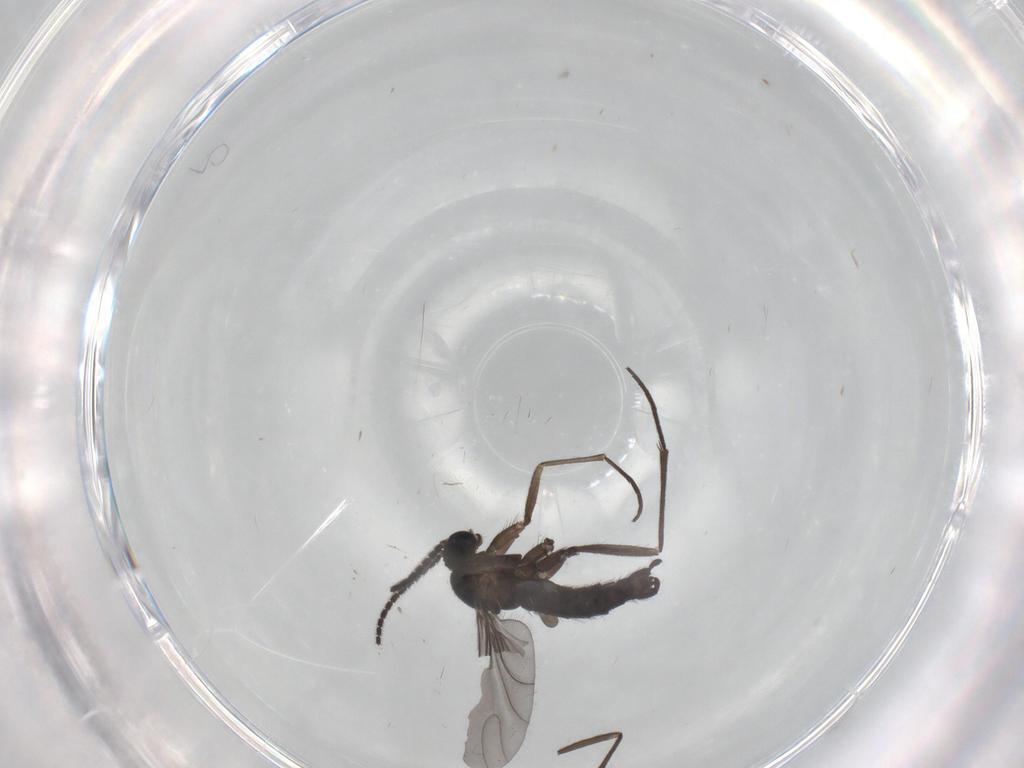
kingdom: Animalia
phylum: Arthropoda
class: Insecta
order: Diptera
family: Sciaridae
